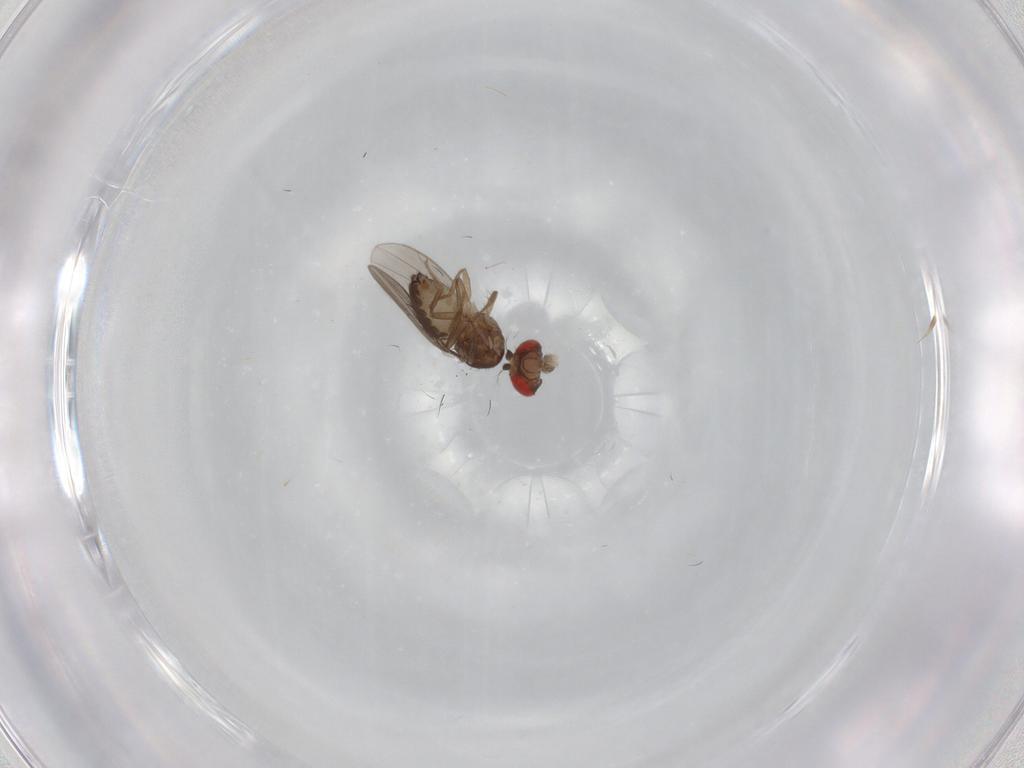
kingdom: Animalia
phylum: Arthropoda
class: Insecta
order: Diptera
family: Drosophilidae
